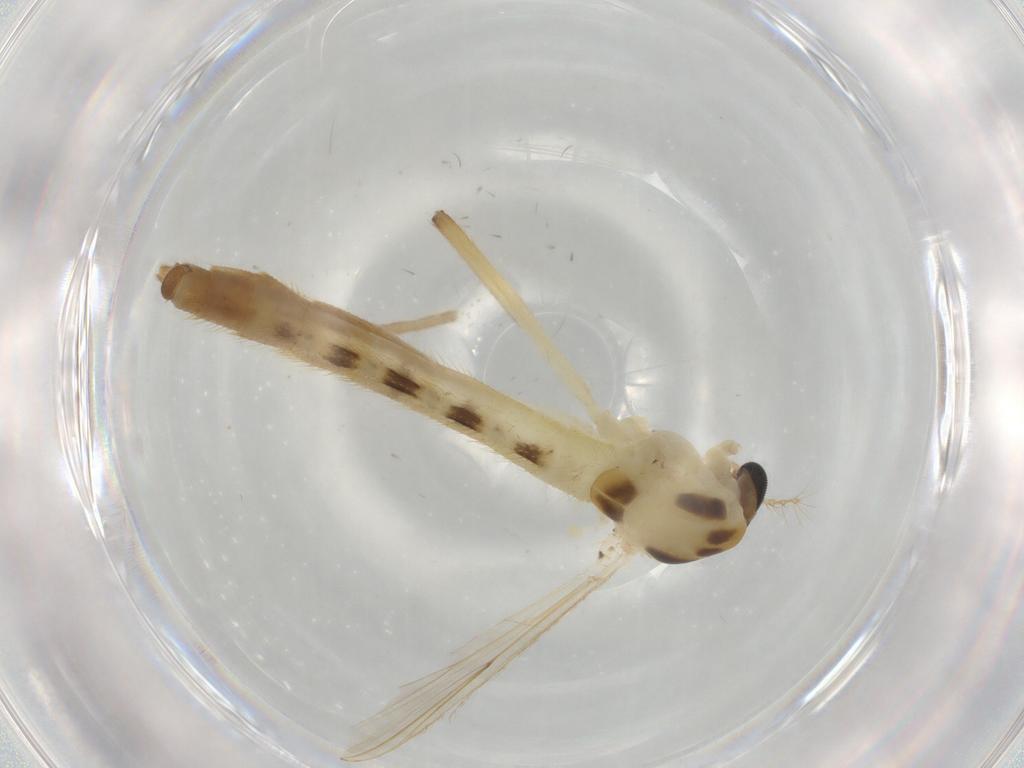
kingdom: Animalia
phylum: Arthropoda
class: Insecta
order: Diptera
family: Chironomidae
